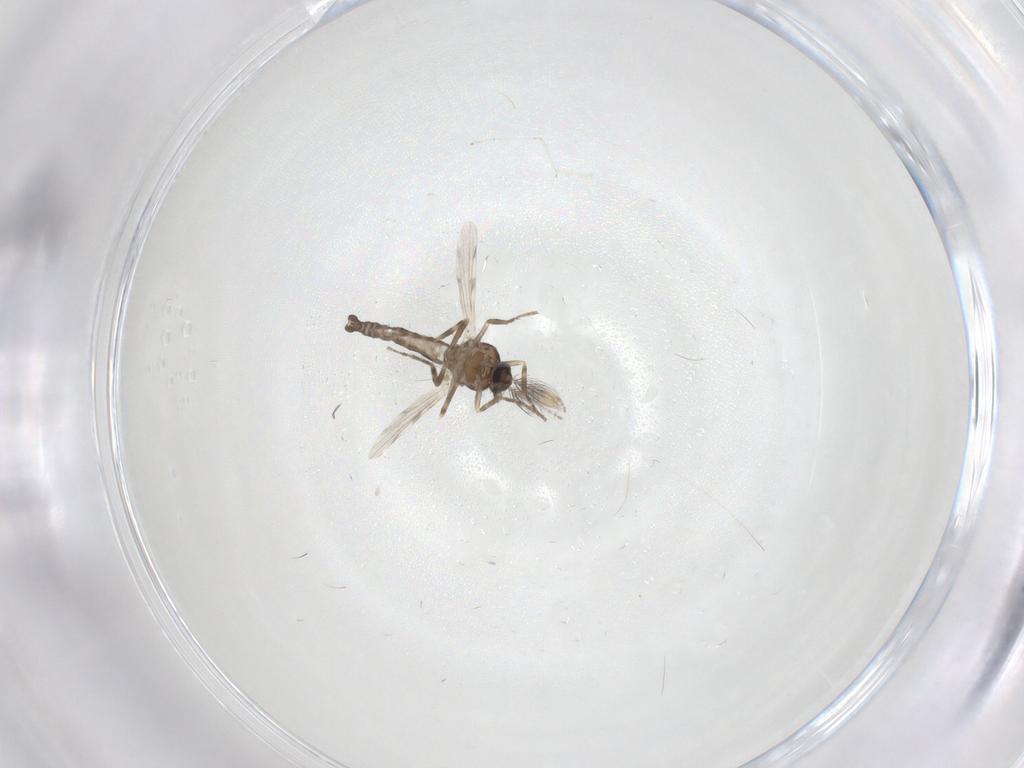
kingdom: Animalia
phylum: Arthropoda
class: Insecta
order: Diptera
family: Ceratopogonidae
